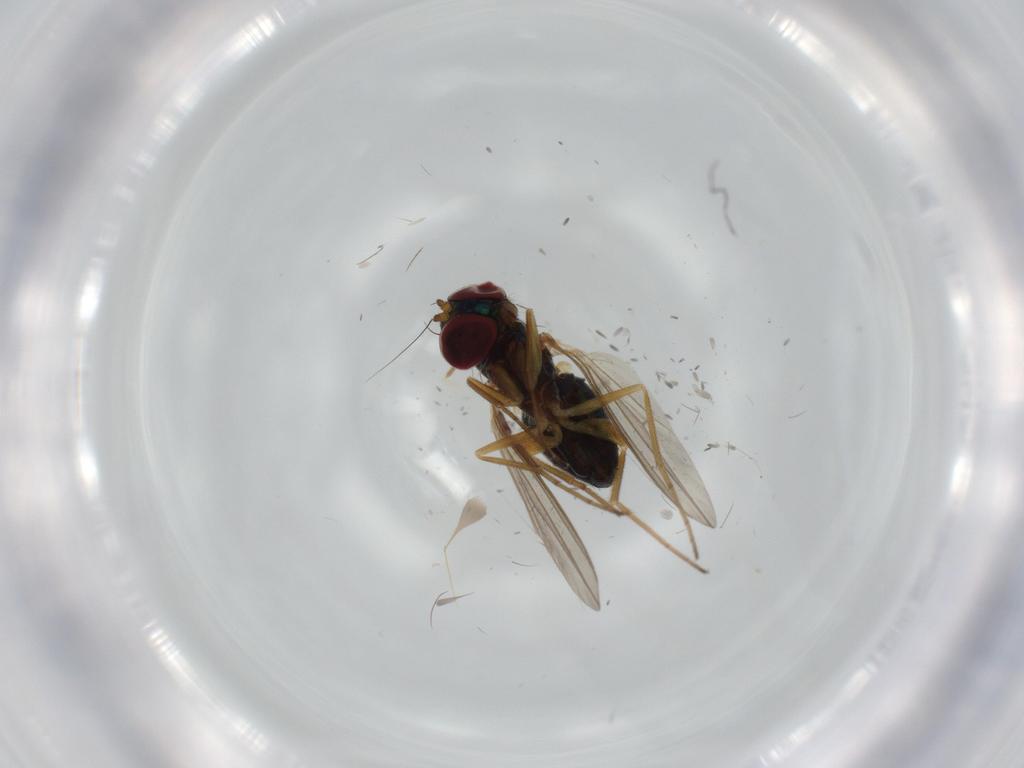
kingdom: Animalia
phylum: Arthropoda
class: Insecta
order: Diptera
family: Dolichopodidae
